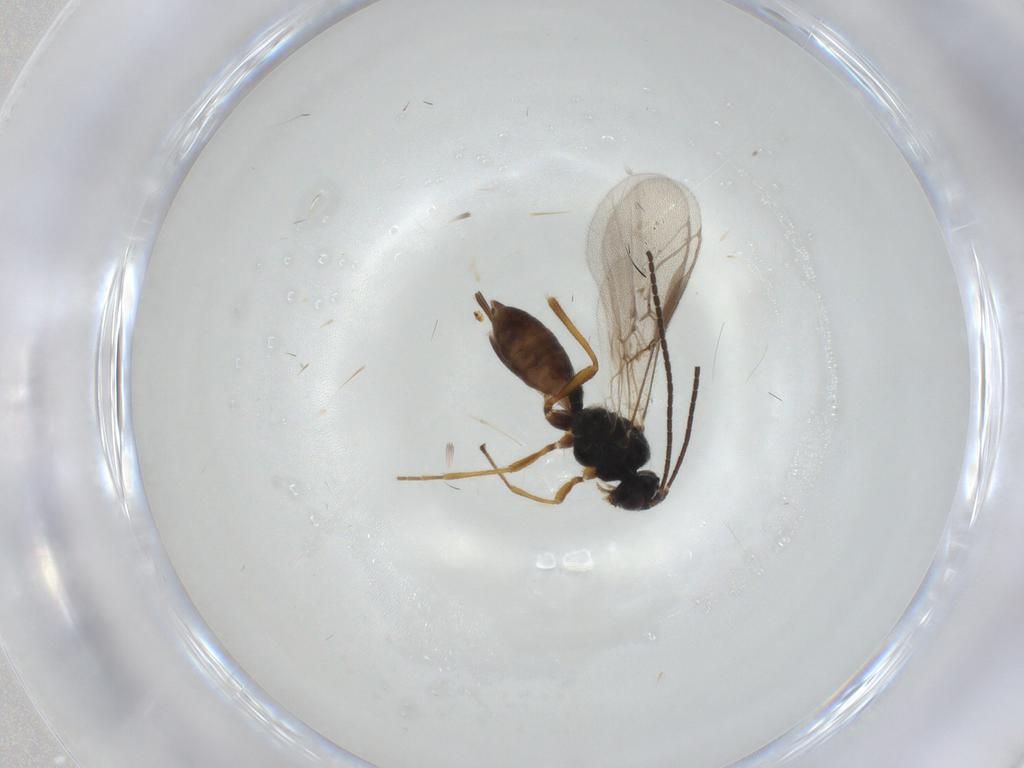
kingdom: Animalia
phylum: Arthropoda
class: Insecta
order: Hymenoptera
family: Braconidae
